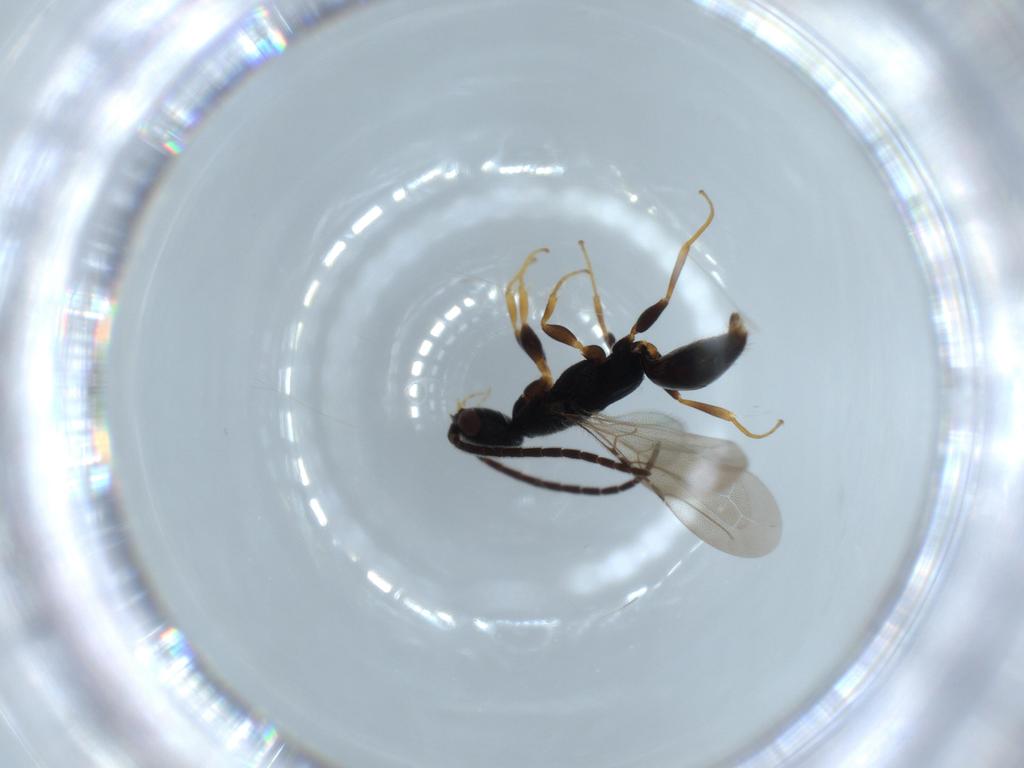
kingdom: Animalia
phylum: Arthropoda
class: Insecta
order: Hymenoptera
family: Bethylidae
